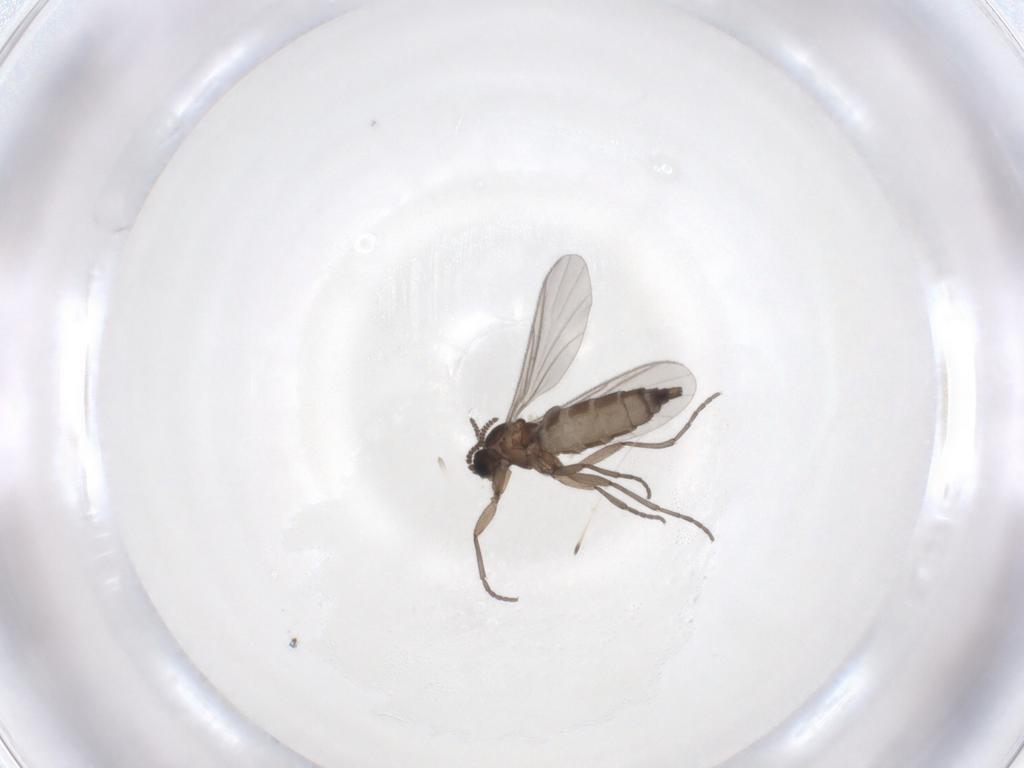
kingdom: Animalia
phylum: Arthropoda
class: Insecta
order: Diptera
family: Sciaridae
